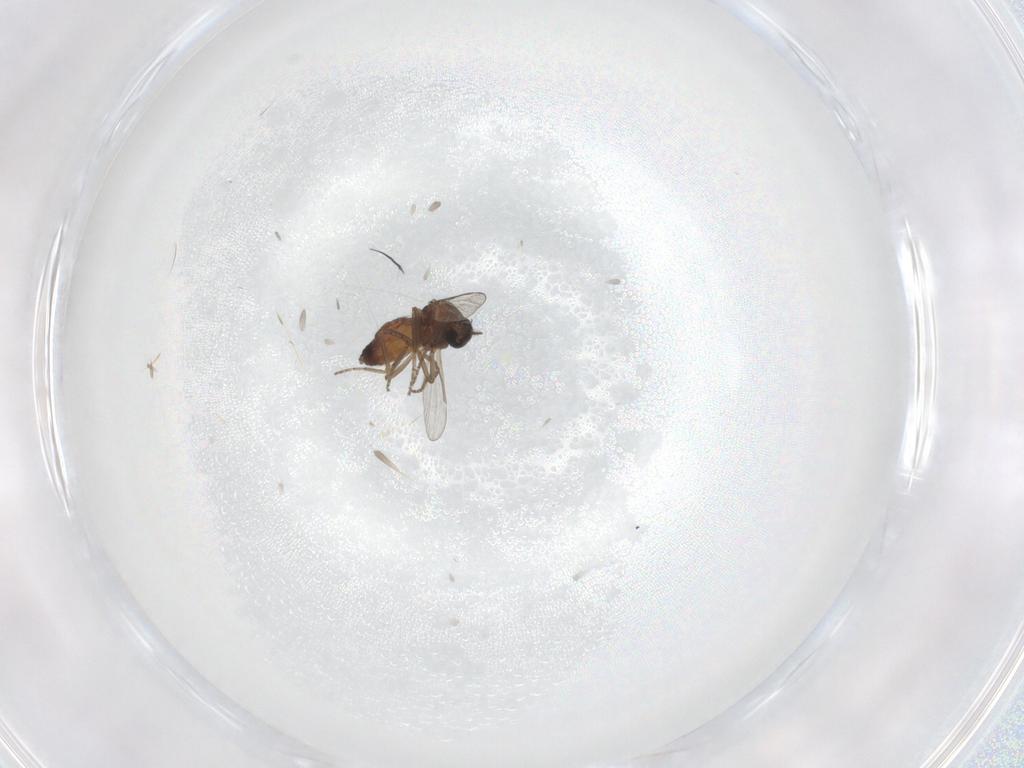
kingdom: Animalia
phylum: Arthropoda
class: Insecta
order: Diptera
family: Ceratopogonidae
